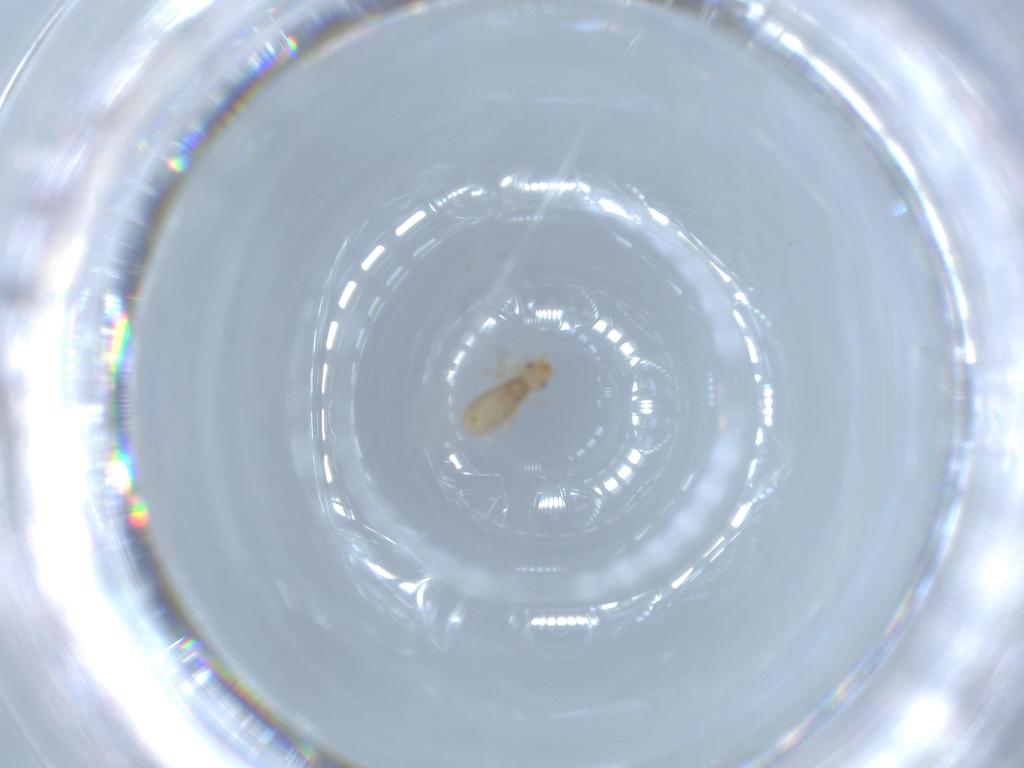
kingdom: Animalia
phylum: Arthropoda
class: Insecta
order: Psocodea
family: Liposcelididae
